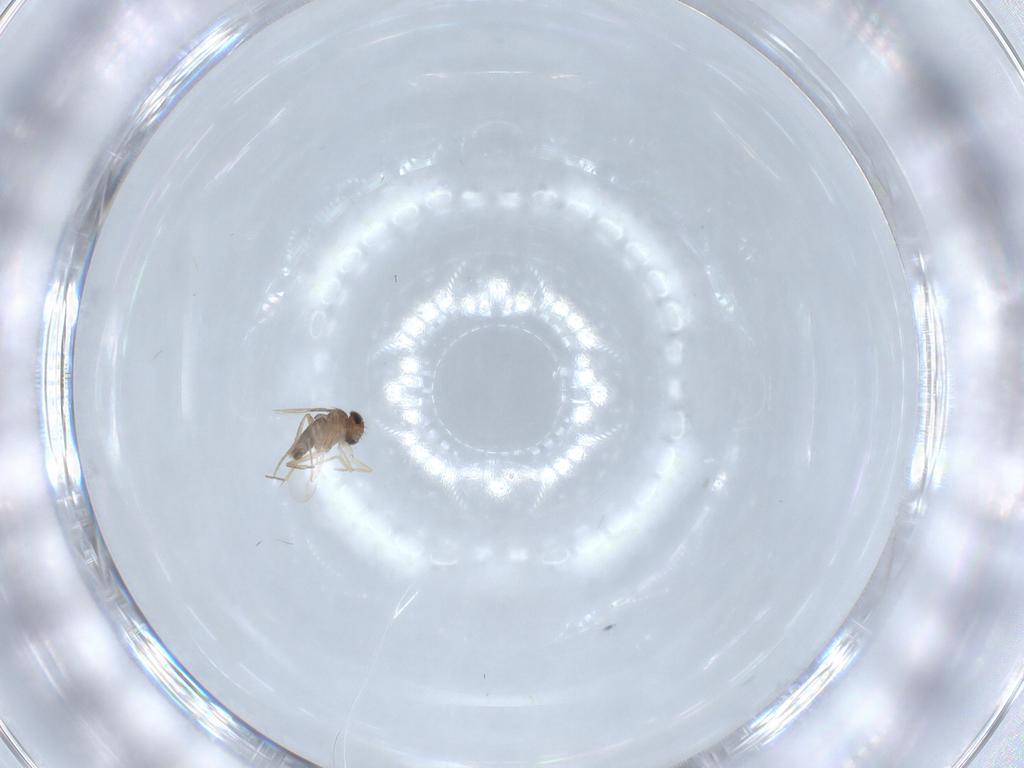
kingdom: Animalia
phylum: Arthropoda
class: Insecta
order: Diptera
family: Phoridae
